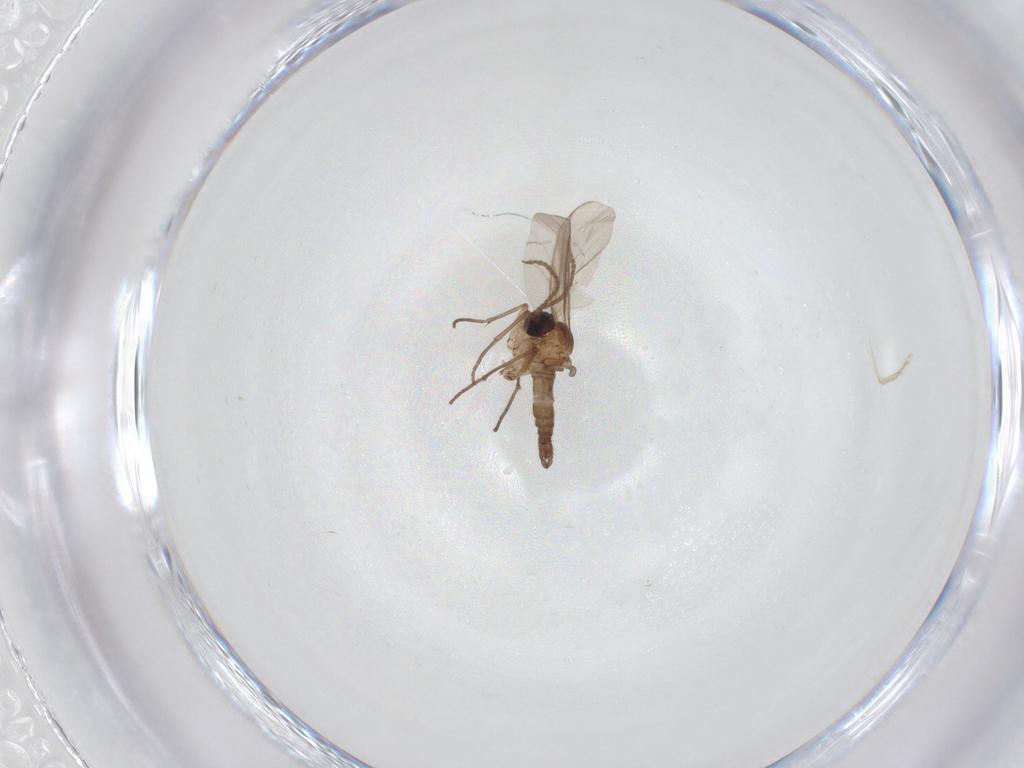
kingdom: Animalia
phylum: Arthropoda
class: Insecta
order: Diptera
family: Sciaridae
